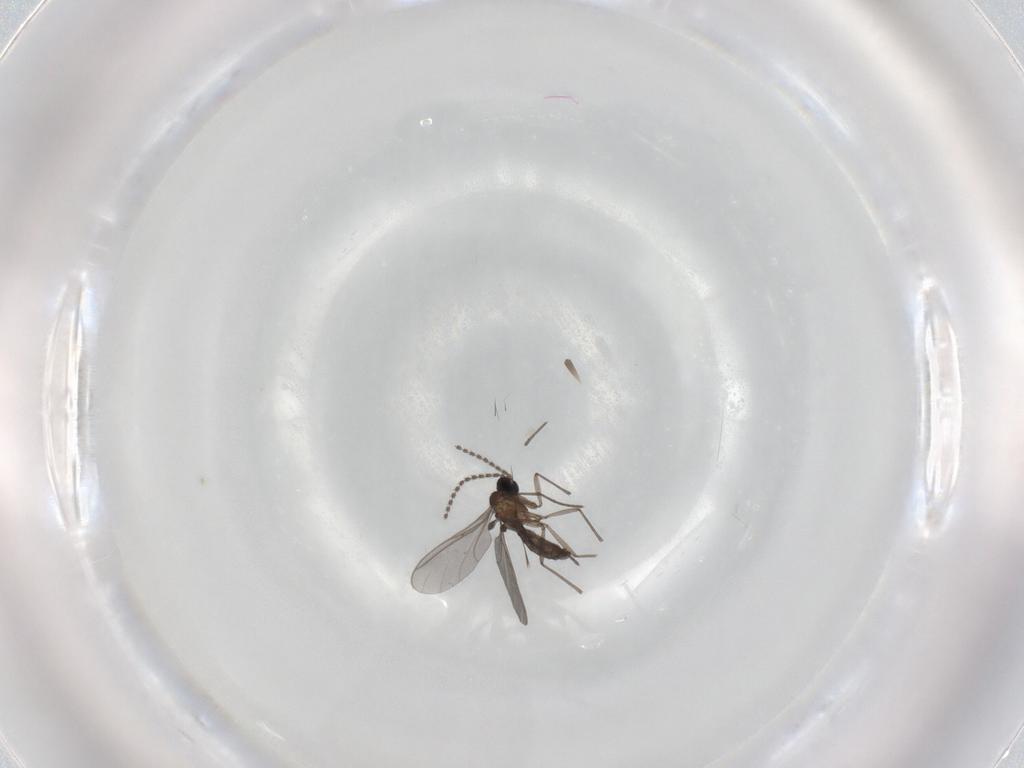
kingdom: Animalia
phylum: Arthropoda
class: Insecta
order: Diptera
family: Sciaridae
